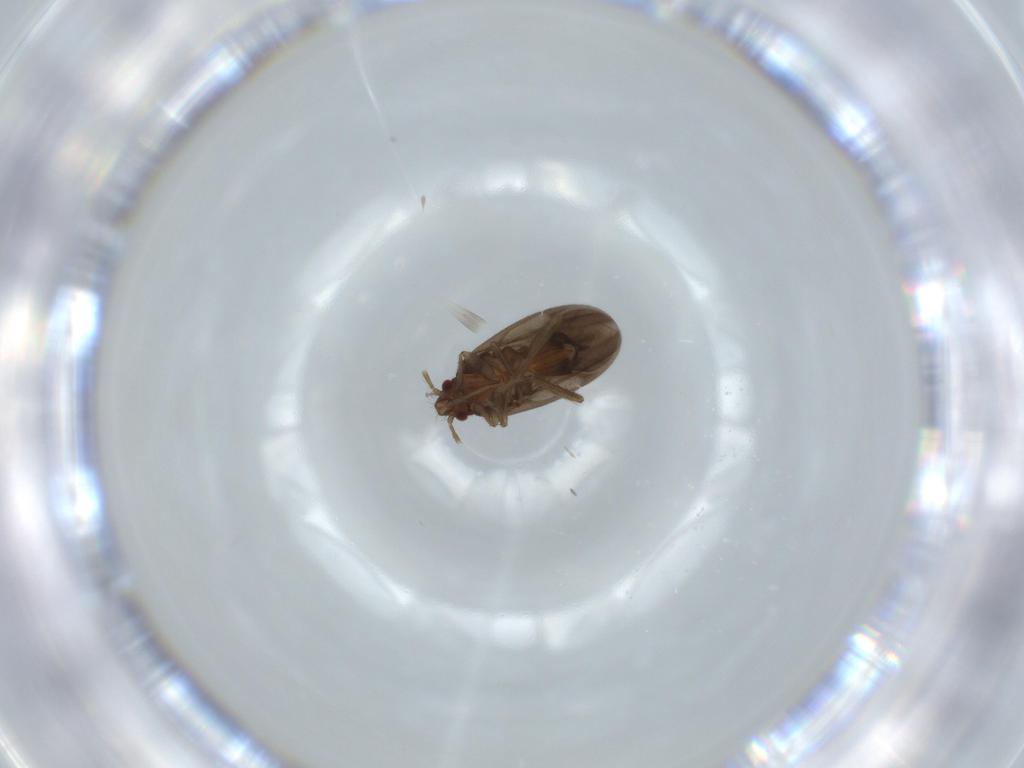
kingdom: Animalia
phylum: Arthropoda
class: Insecta
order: Hemiptera
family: Ceratocombidae
